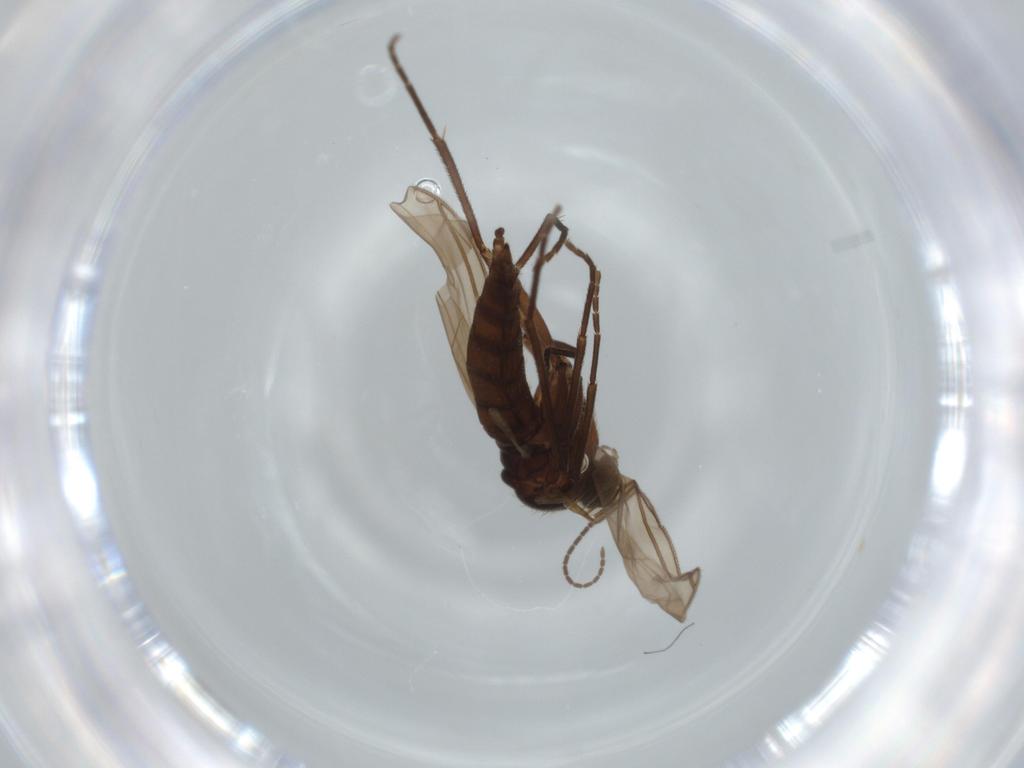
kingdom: Animalia
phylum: Arthropoda
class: Insecta
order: Diptera
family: Sciaridae
